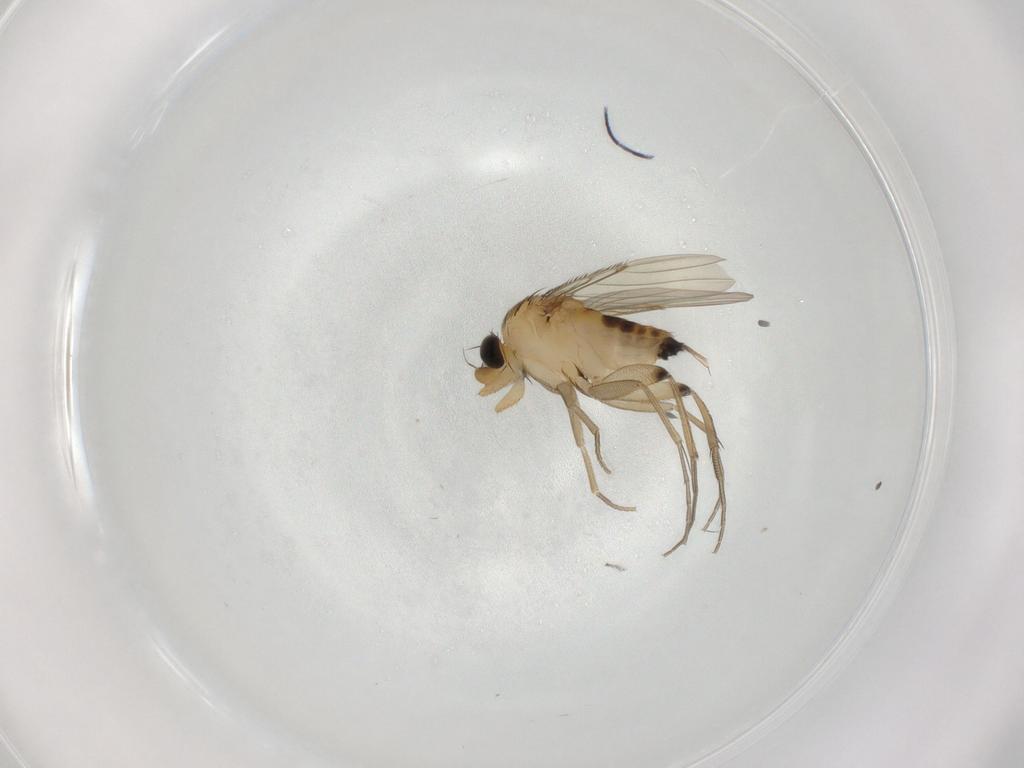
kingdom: Animalia
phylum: Arthropoda
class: Insecta
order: Diptera
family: Phoridae
